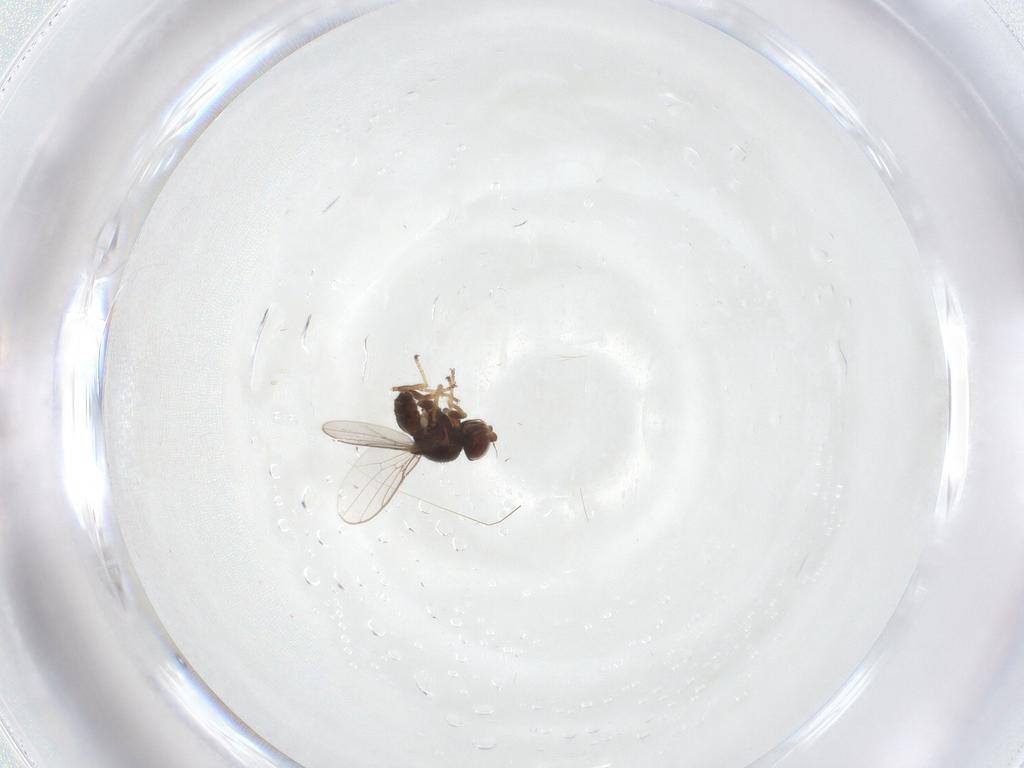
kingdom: Animalia
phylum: Arthropoda
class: Insecta
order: Diptera
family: Chloropidae
